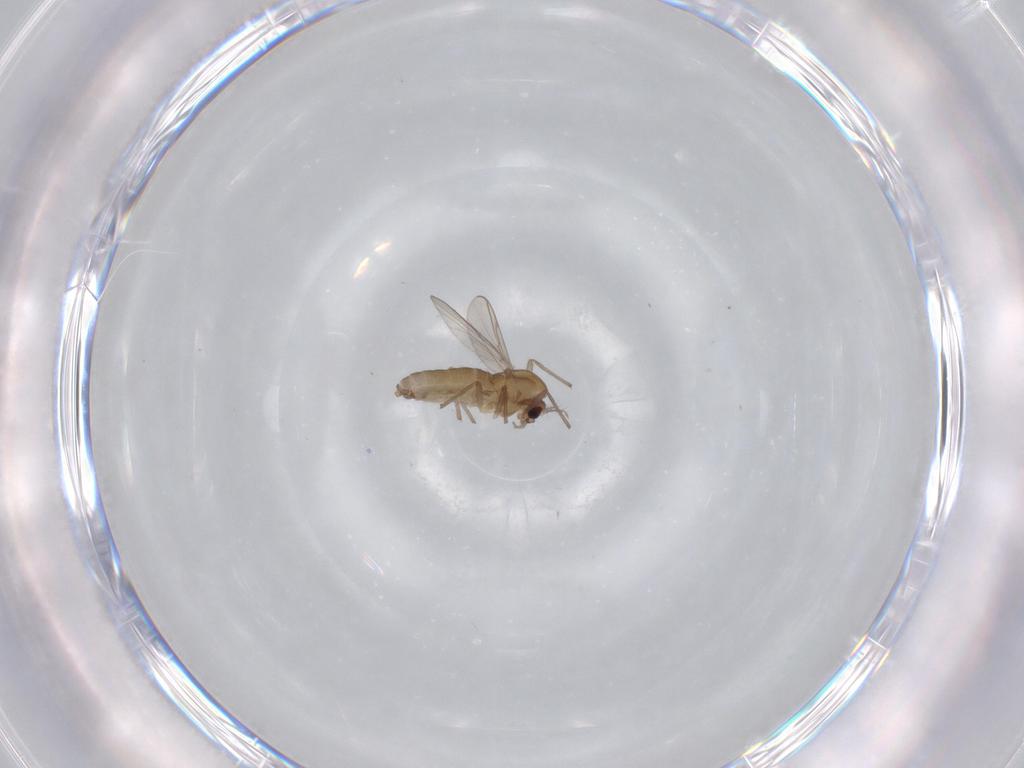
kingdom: Animalia
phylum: Arthropoda
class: Insecta
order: Diptera
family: Chironomidae
